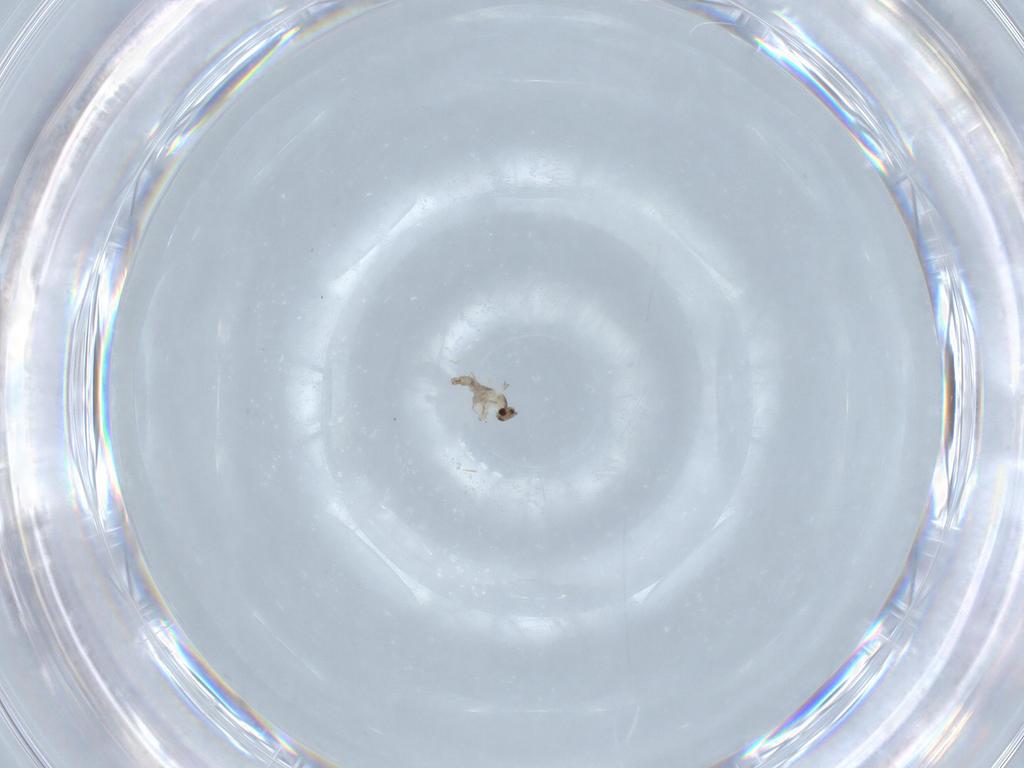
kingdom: Animalia
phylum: Arthropoda
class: Insecta
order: Diptera
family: Cecidomyiidae
